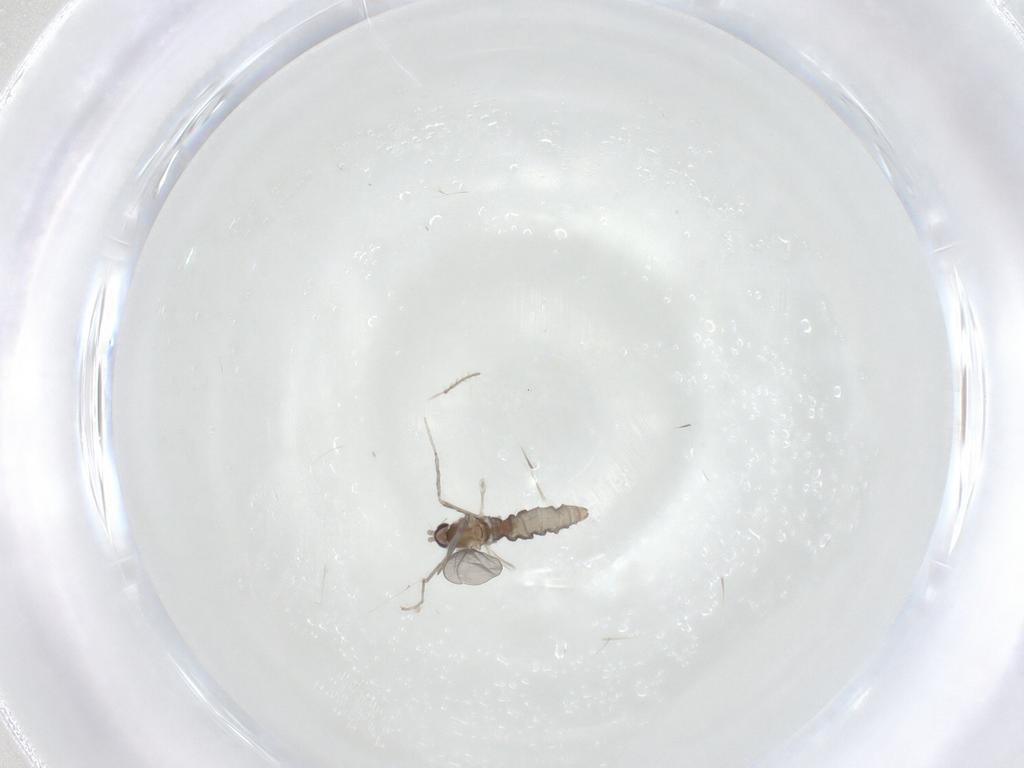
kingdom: Animalia
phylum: Arthropoda
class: Insecta
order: Diptera
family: Cecidomyiidae
